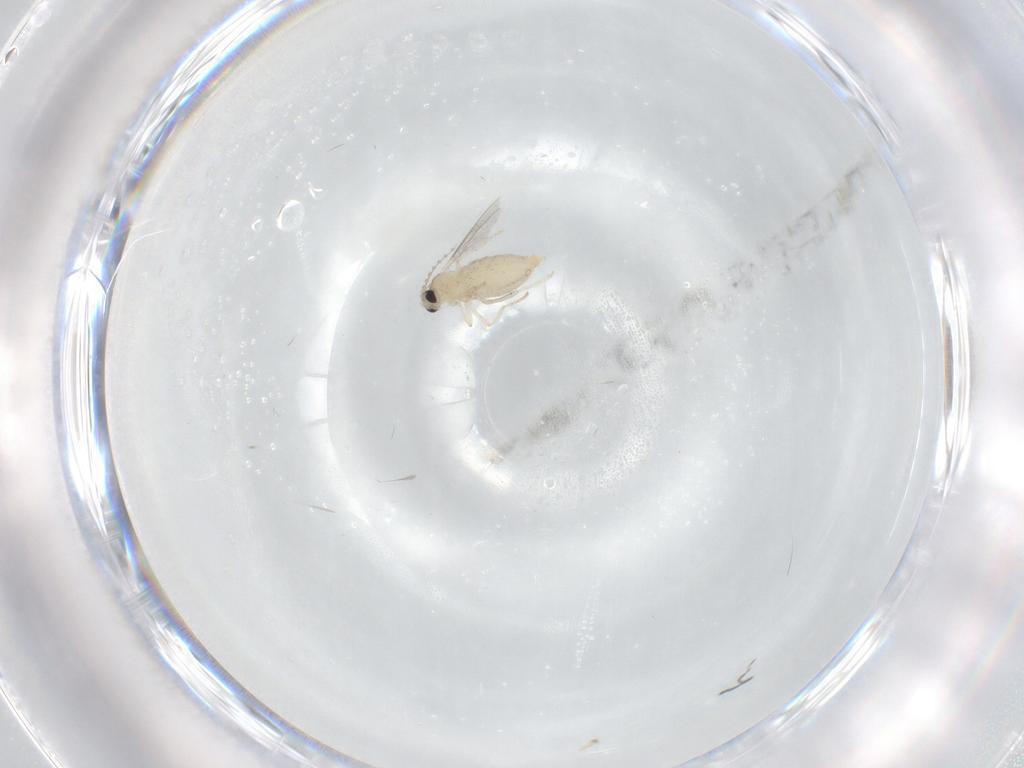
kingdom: Animalia
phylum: Arthropoda
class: Insecta
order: Diptera
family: Cecidomyiidae
